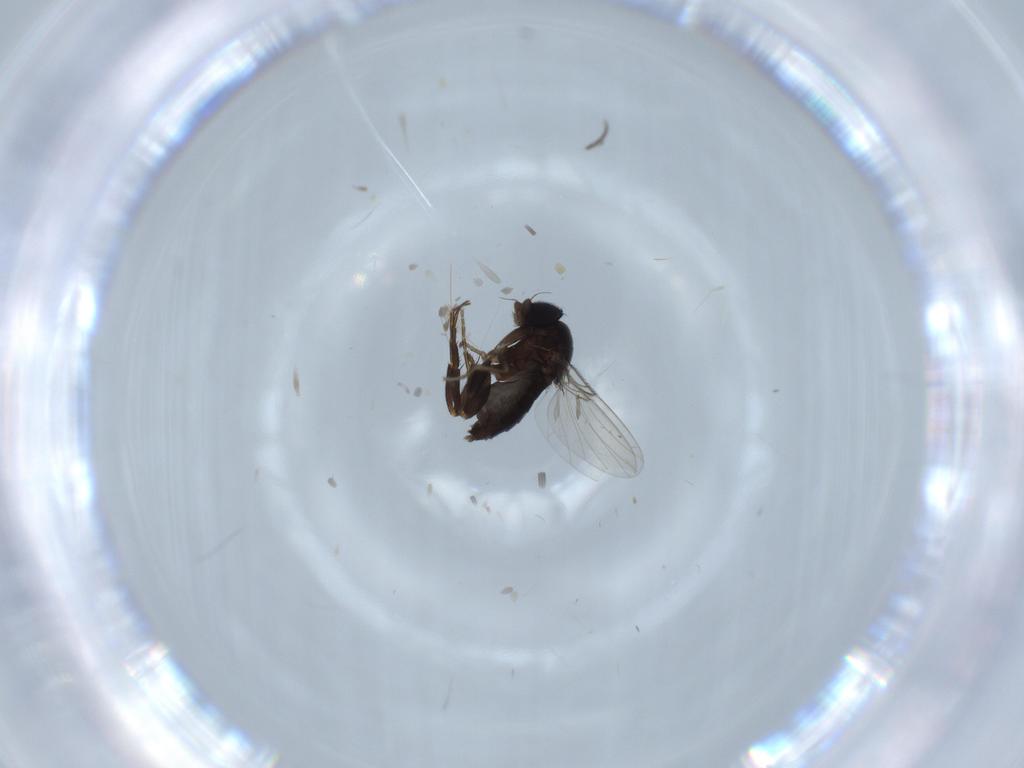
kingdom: Animalia
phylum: Arthropoda
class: Insecta
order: Diptera
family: Phoridae
